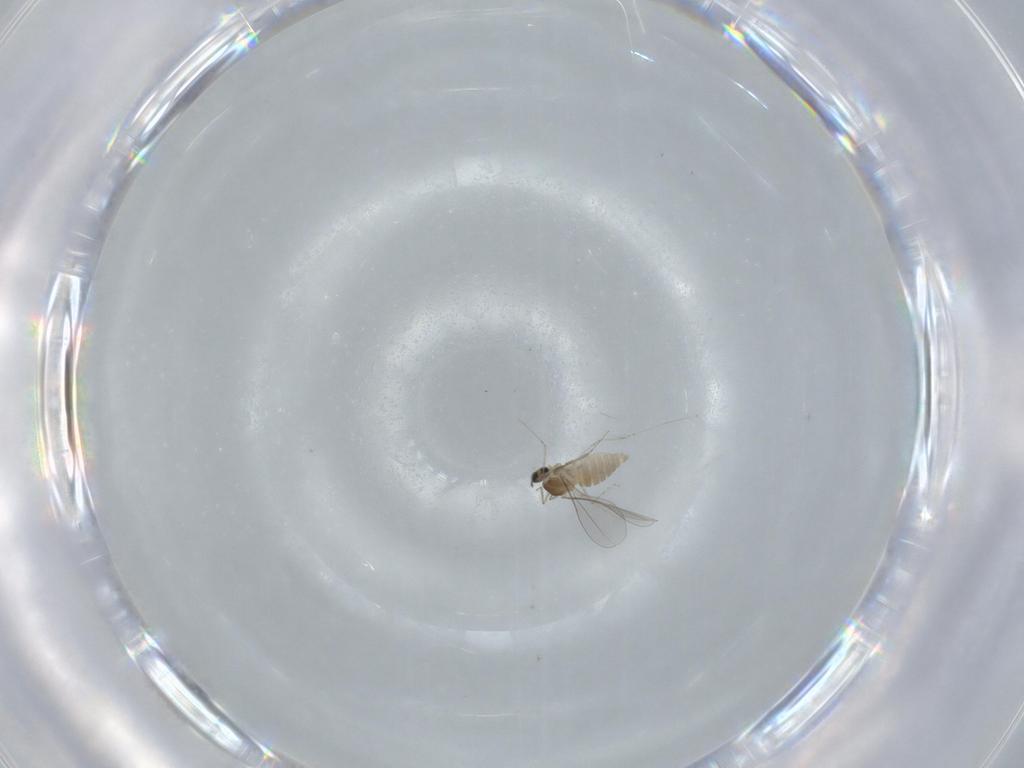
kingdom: Animalia
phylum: Arthropoda
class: Insecta
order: Diptera
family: Cecidomyiidae
